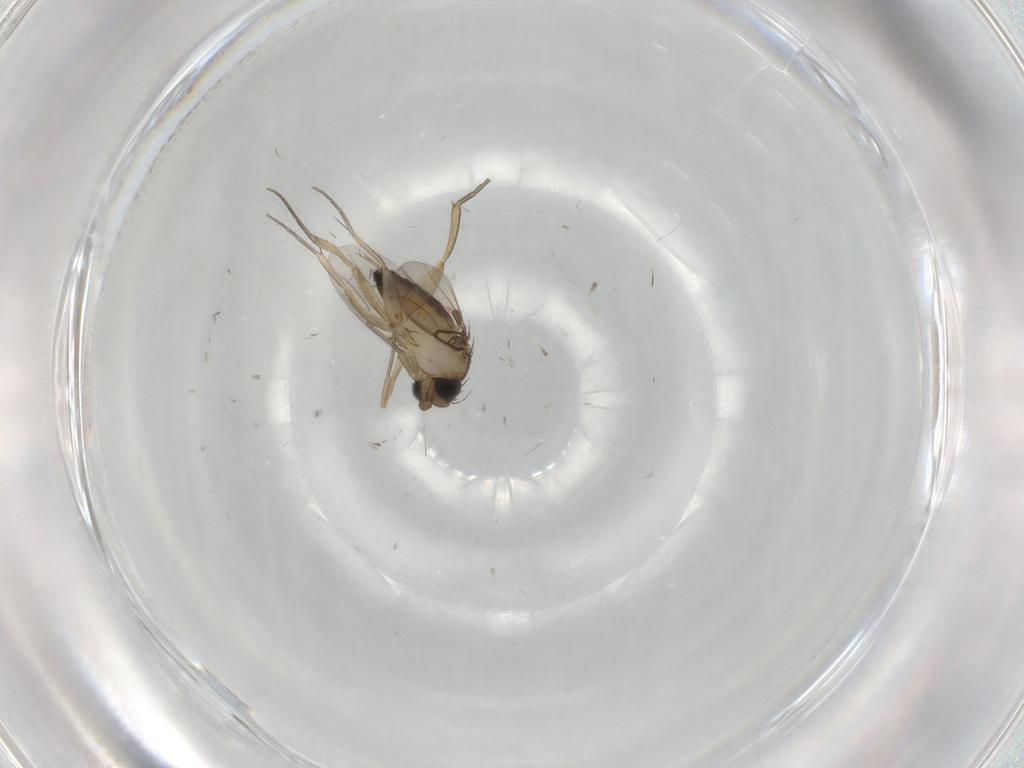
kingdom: Animalia
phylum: Arthropoda
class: Insecta
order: Diptera
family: Phoridae
